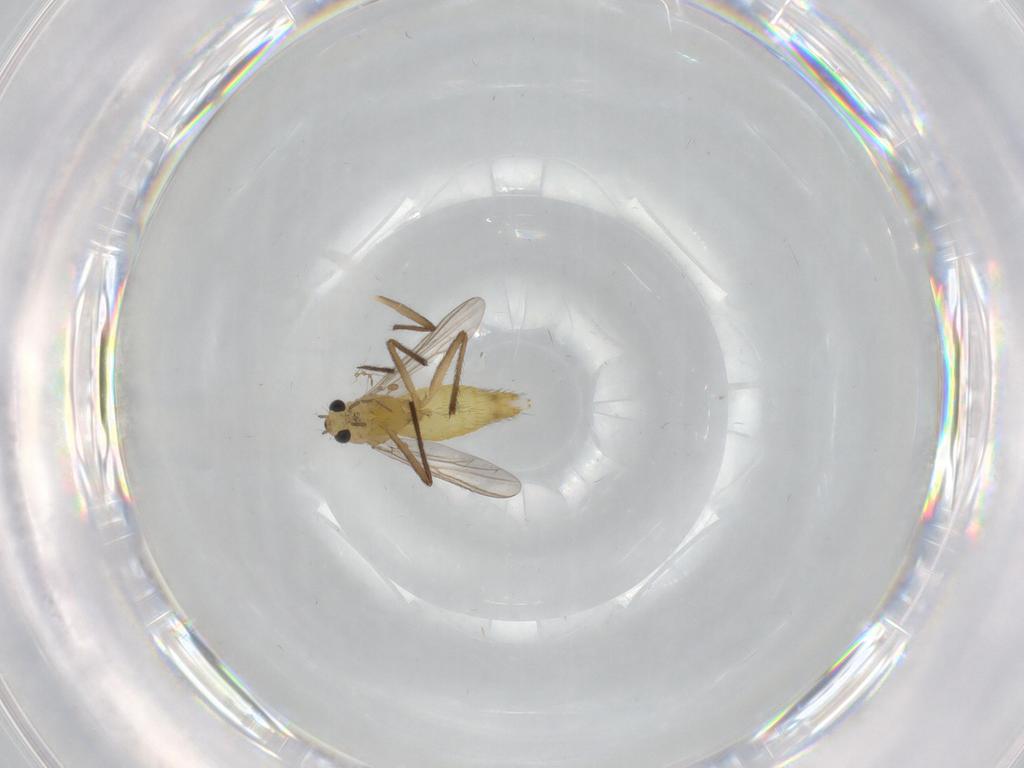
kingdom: Animalia
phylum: Arthropoda
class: Insecta
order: Diptera
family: Chironomidae
